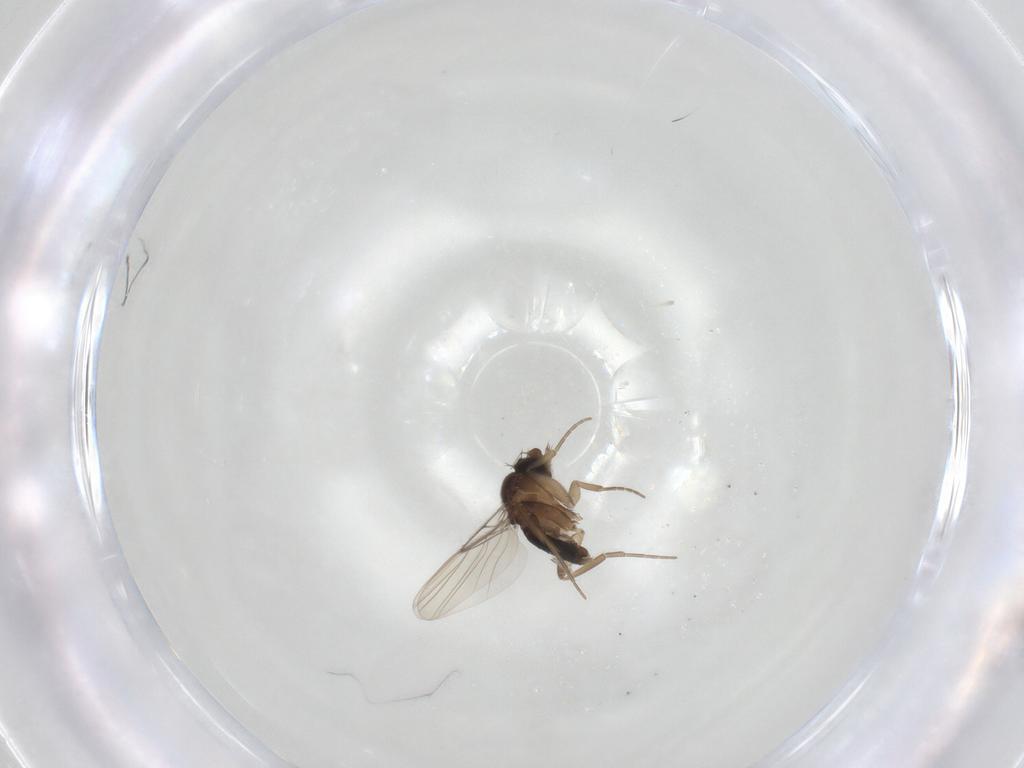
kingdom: Animalia
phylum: Arthropoda
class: Insecta
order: Diptera
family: Phoridae
